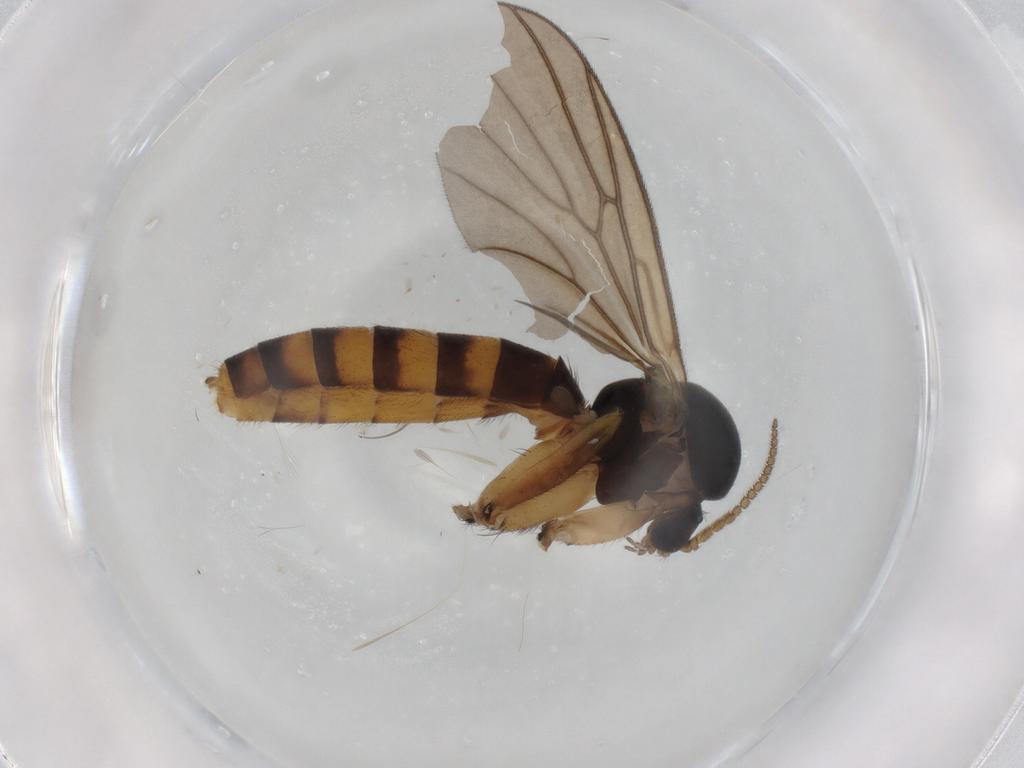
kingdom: Animalia
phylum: Arthropoda
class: Insecta
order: Diptera
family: Mycetophilidae
